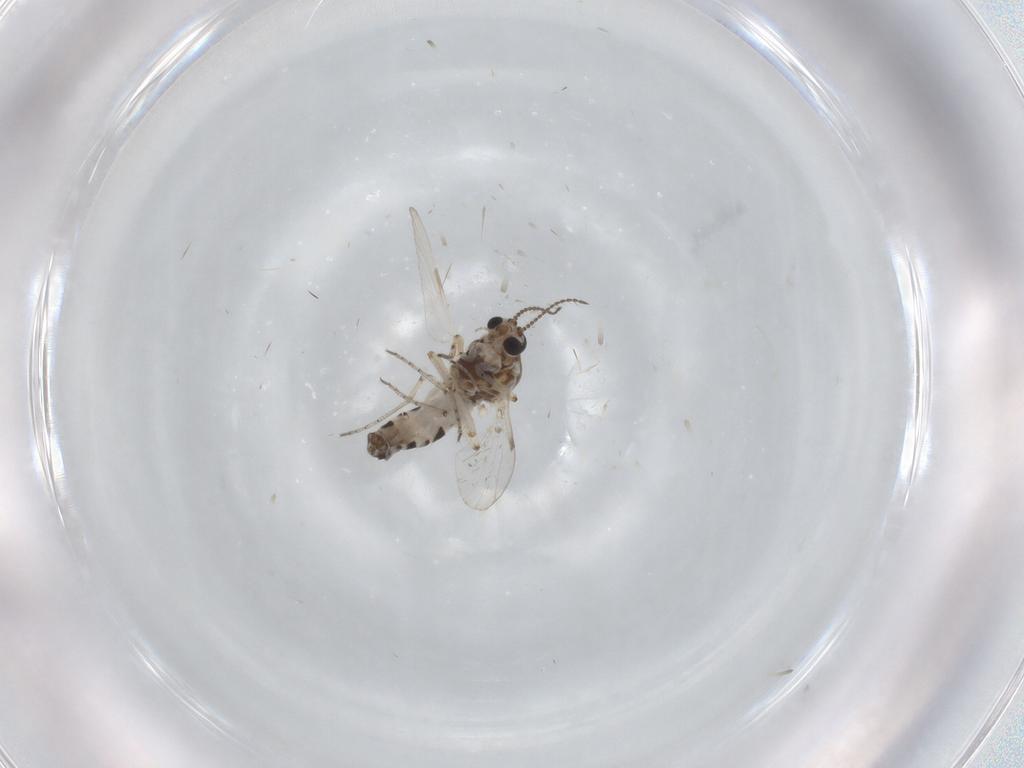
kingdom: Animalia
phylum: Arthropoda
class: Insecta
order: Diptera
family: Ceratopogonidae
